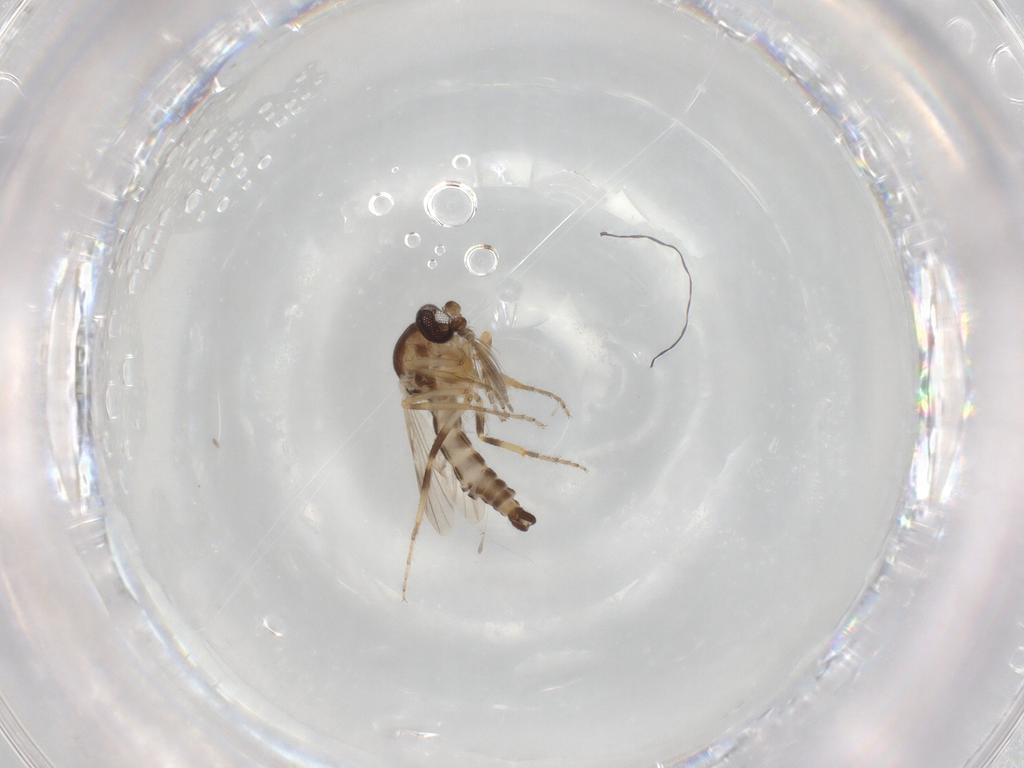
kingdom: Animalia
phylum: Arthropoda
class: Insecta
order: Diptera
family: Ceratopogonidae
